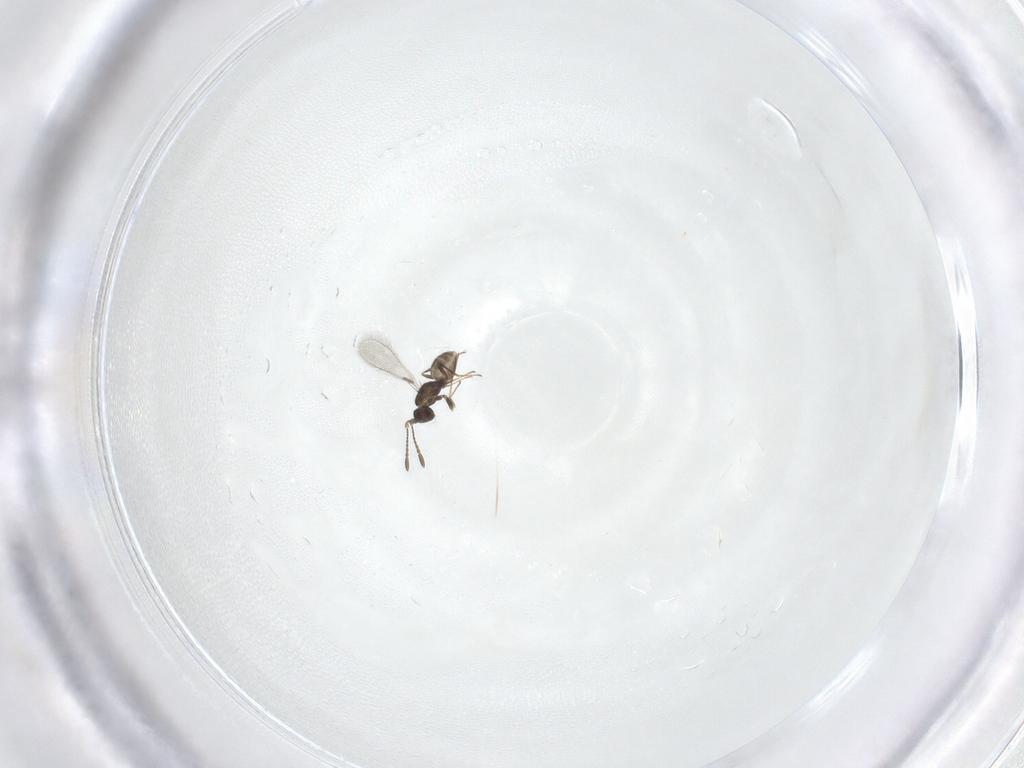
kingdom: Animalia
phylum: Arthropoda
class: Insecta
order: Hymenoptera
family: Mymaridae
